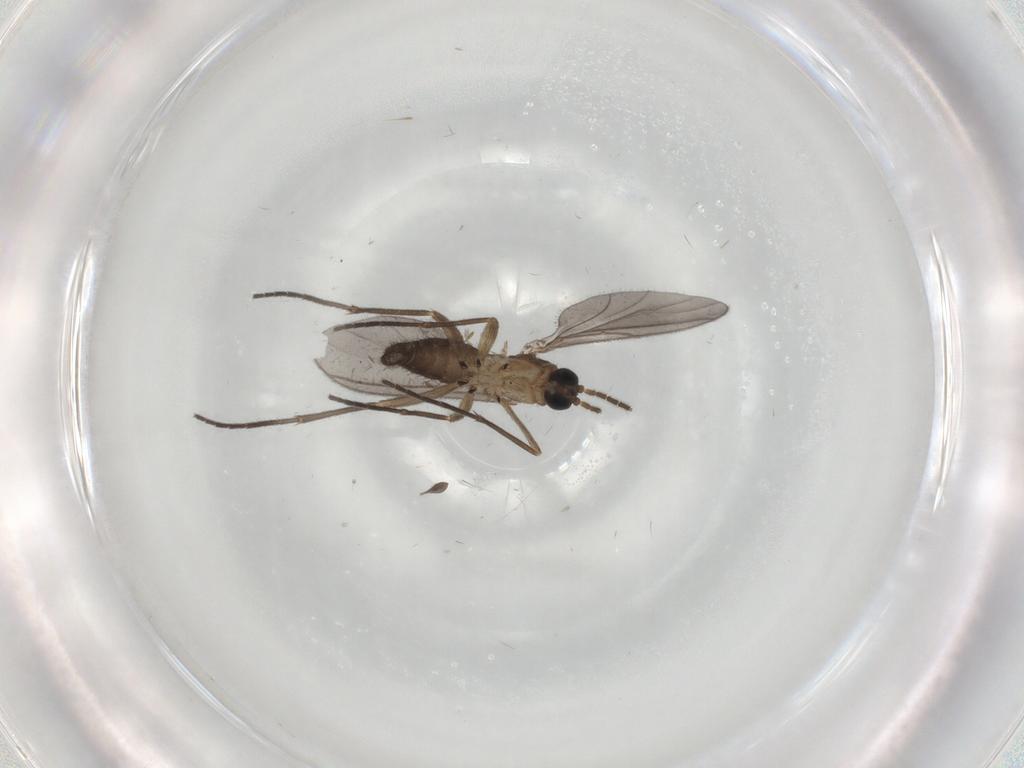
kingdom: Animalia
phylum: Arthropoda
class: Insecta
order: Diptera
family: Sciaridae
